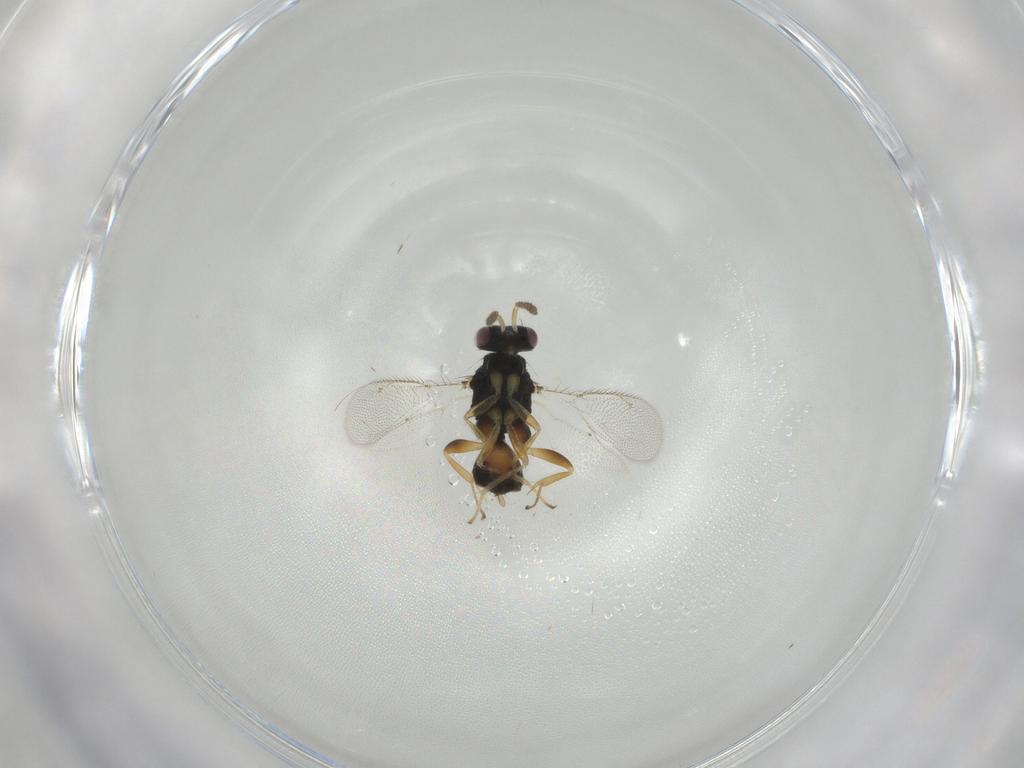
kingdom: Animalia
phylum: Arthropoda
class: Insecta
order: Hymenoptera
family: Eulophidae
